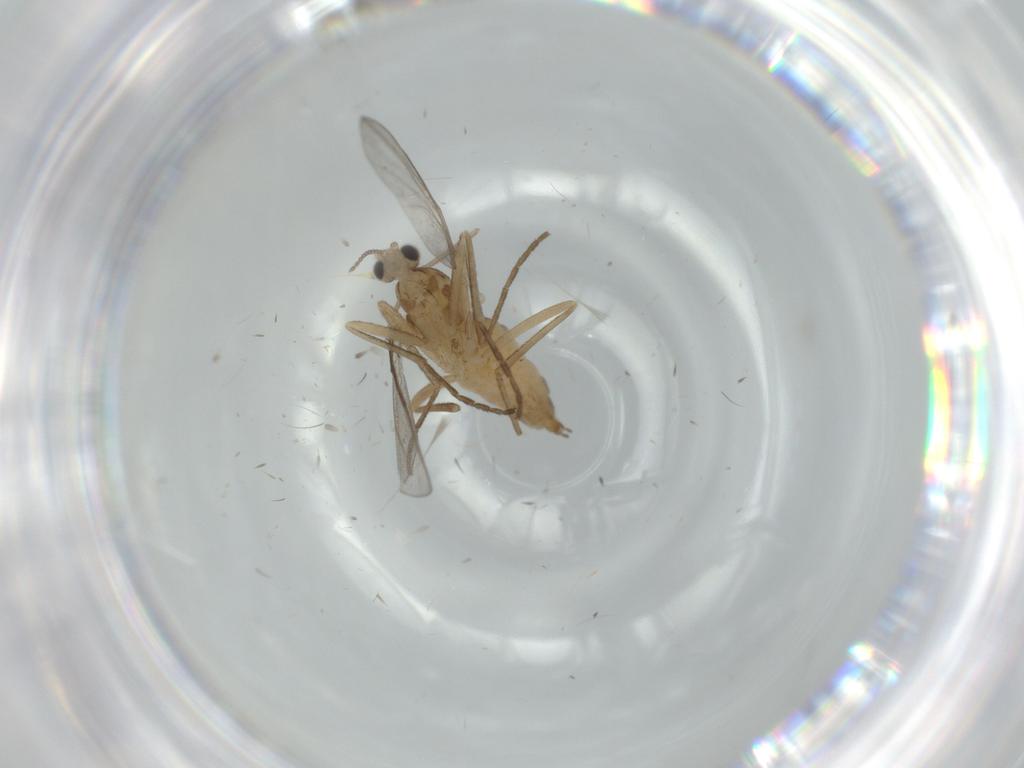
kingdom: Animalia
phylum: Arthropoda
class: Insecta
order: Diptera
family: Cecidomyiidae
